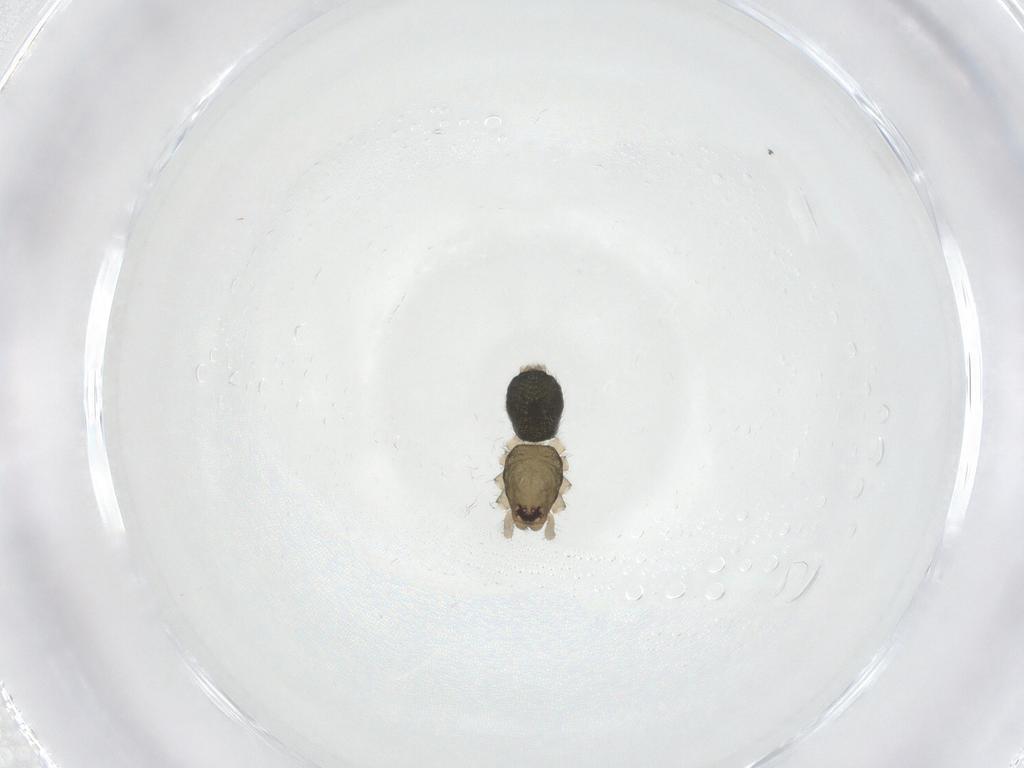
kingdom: Animalia
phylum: Arthropoda
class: Arachnida
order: Araneae
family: Gnaphosidae
